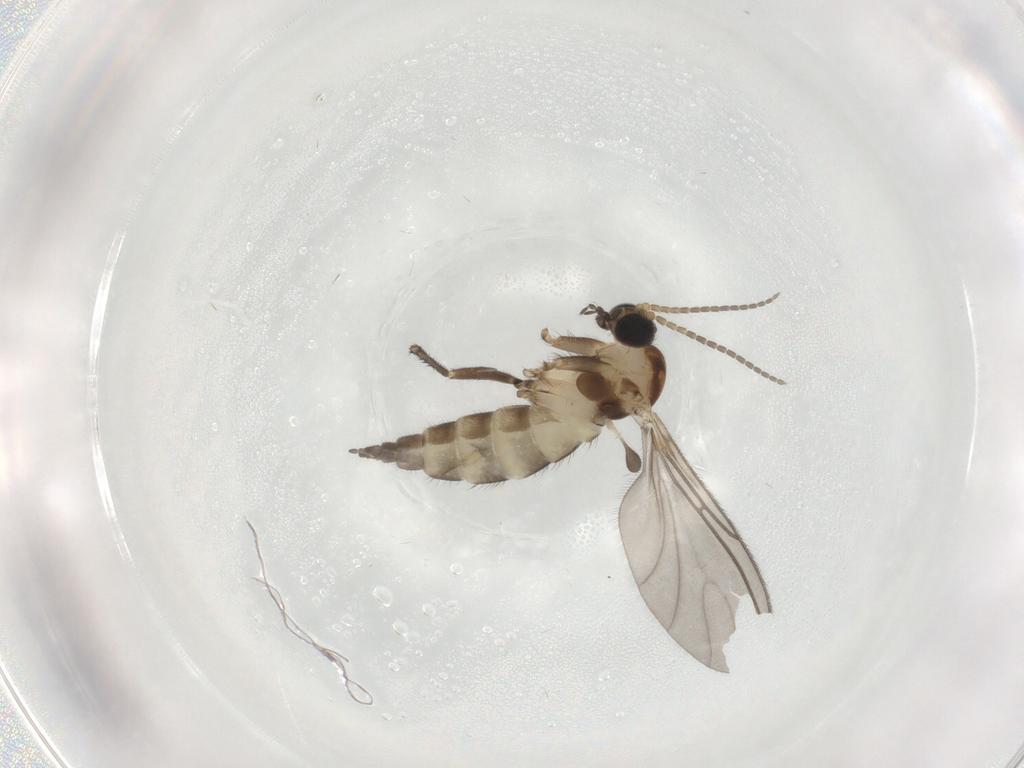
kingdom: Animalia
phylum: Arthropoda
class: Insecta
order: Diptera
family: Sciaridae
